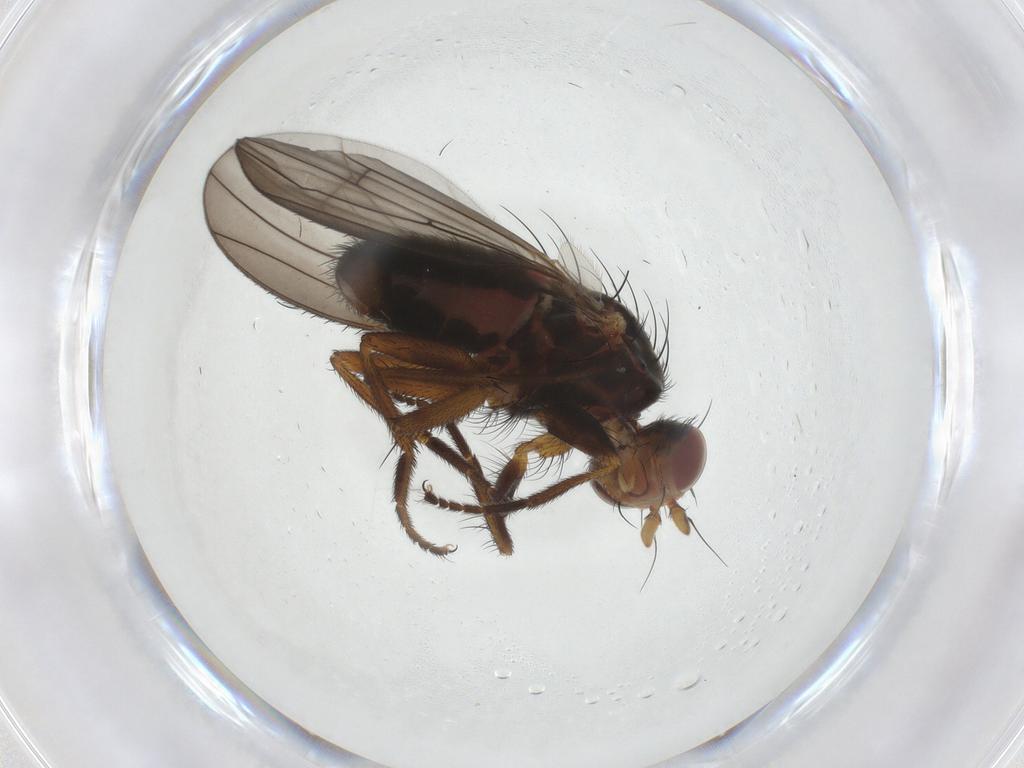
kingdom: Animalia
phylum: Arthropoda
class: Insecta
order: Diptera
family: Heleomyzidae
